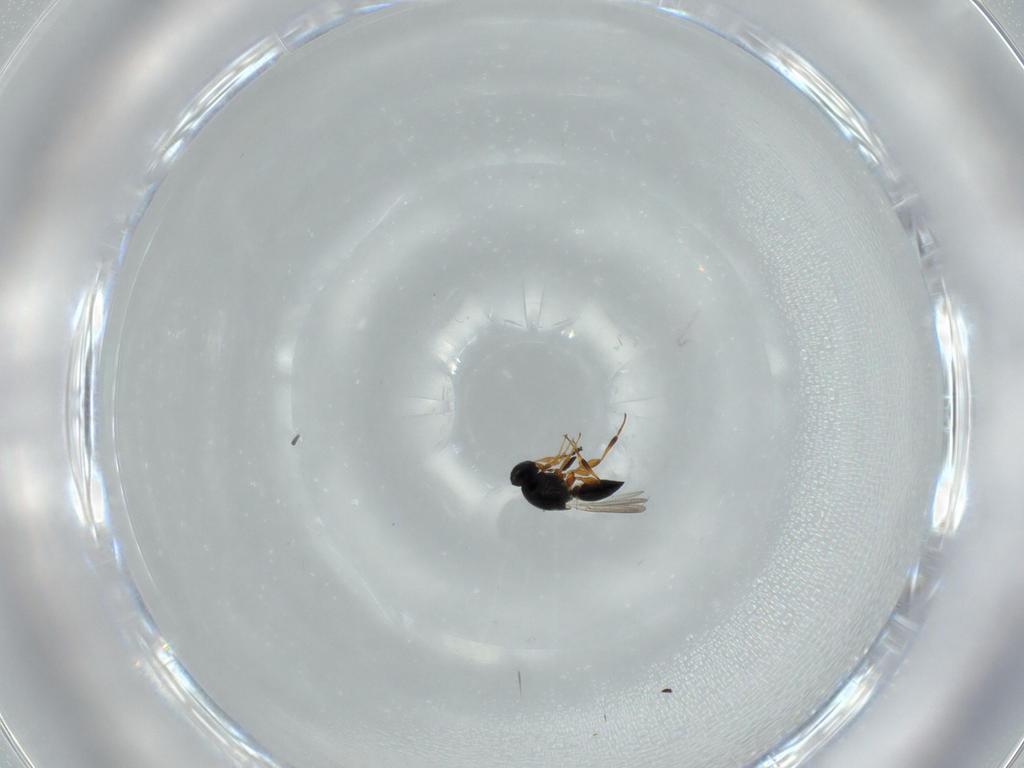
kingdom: Animalia
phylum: Arthropoda
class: Insecta
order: Hymenoptera
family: Platygastridae
